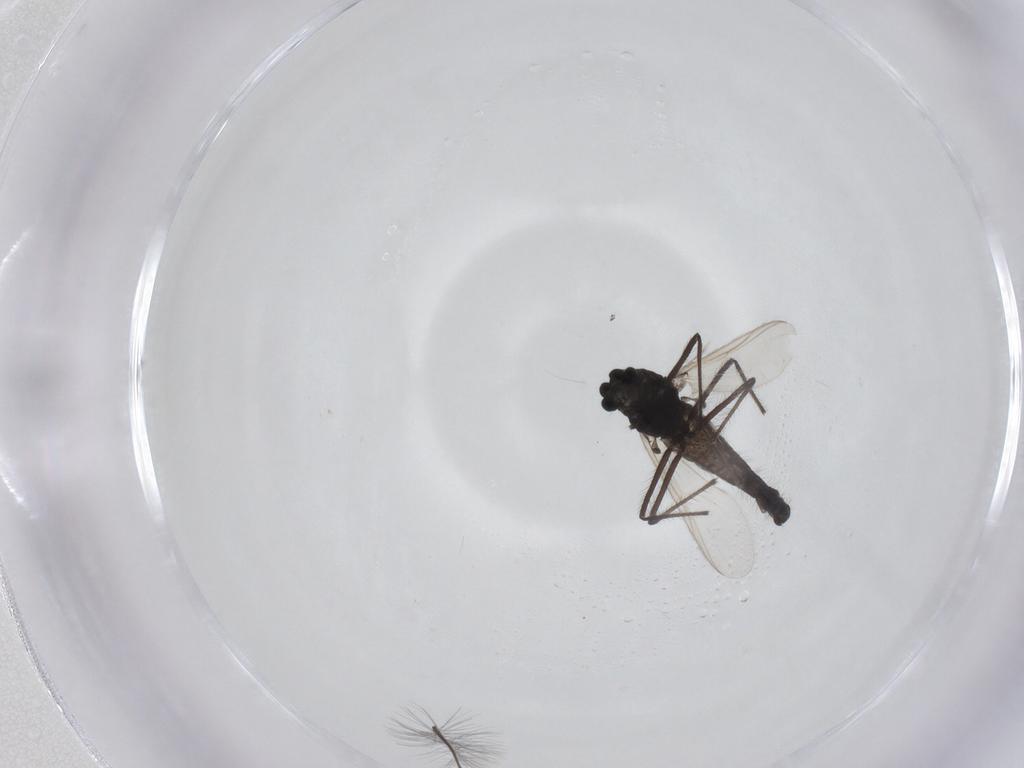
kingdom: Animalia
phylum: Arthropoda
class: Insecta
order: Diptera
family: Chironomidae
